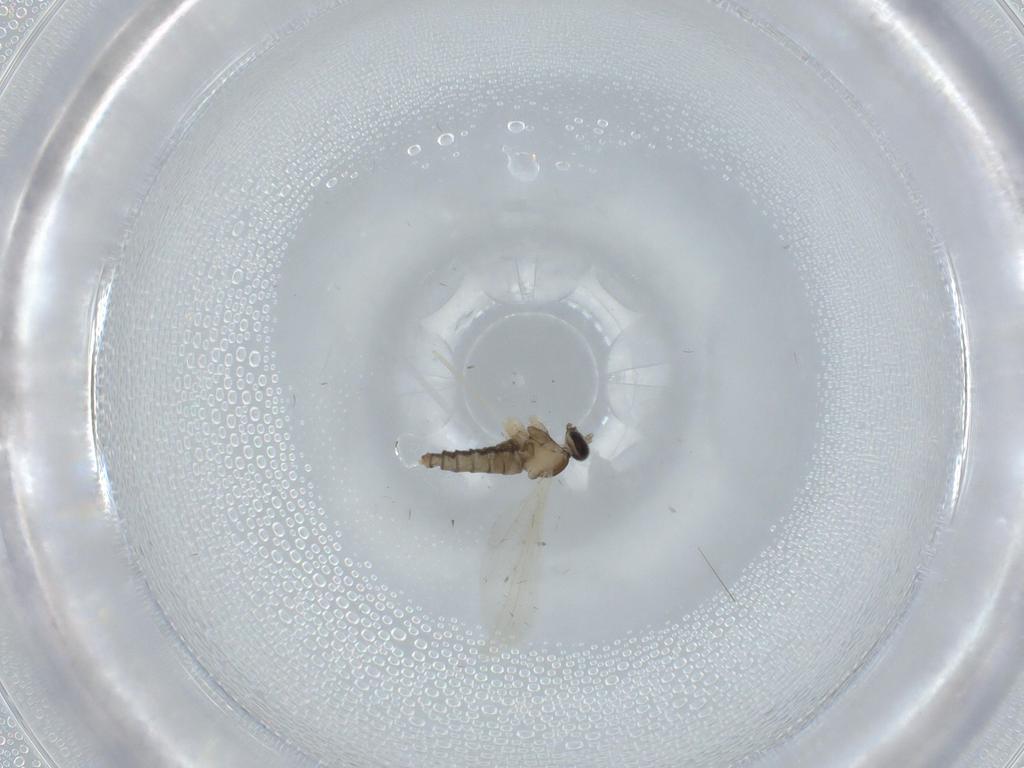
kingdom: Animalia
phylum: Arthropoda
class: Insecta
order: Diptera
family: Cecidomyiidae
